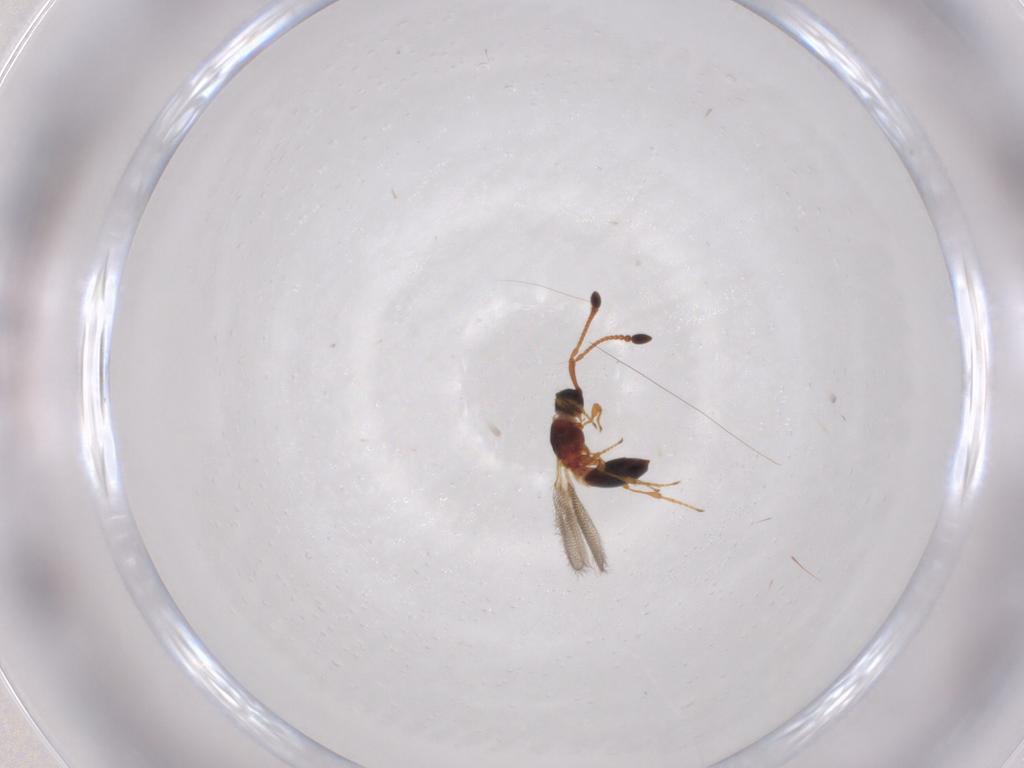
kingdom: Animalia
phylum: Arthropoda
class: Insecta
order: Hymenoptera
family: Diapriidae
